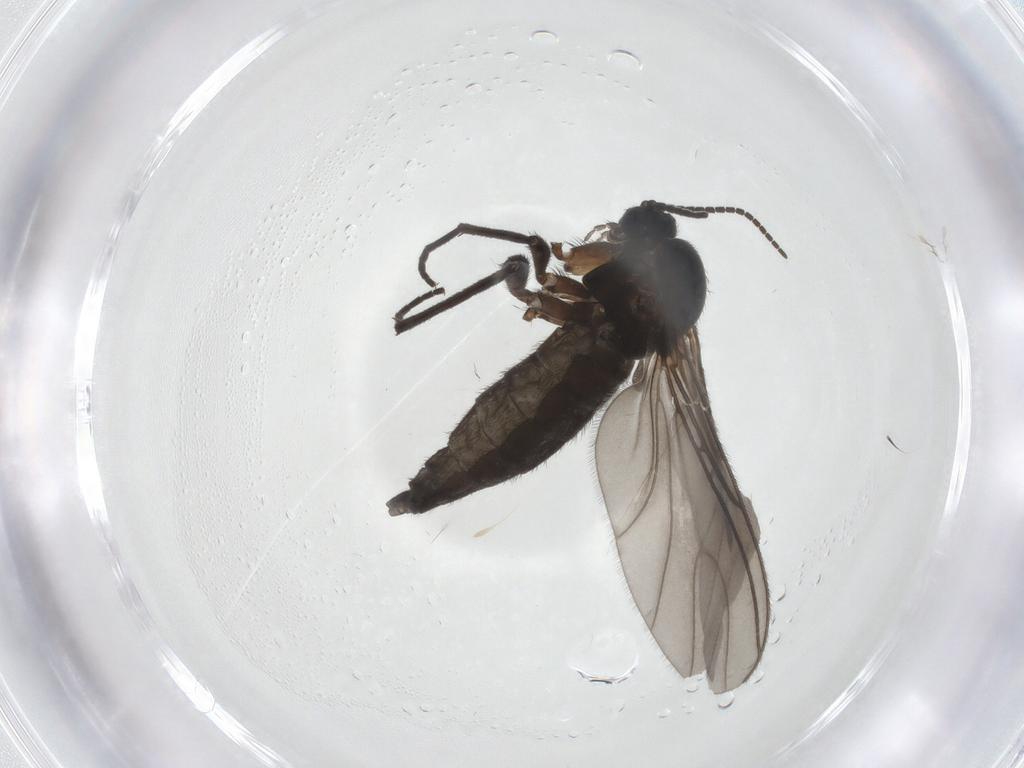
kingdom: Animalia
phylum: Arthropoda
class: Insecta
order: Diptera
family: Sciaridae
